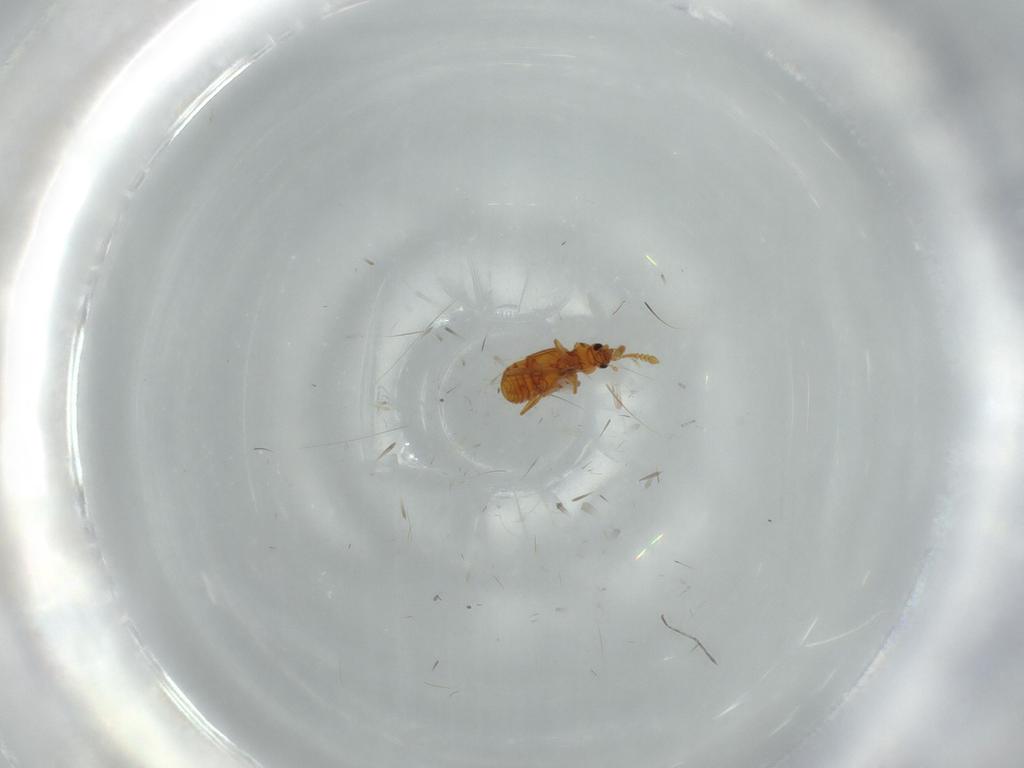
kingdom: Animalia
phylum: Arthropoda
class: Insecta
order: Coleoptera
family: Staphylinidae
